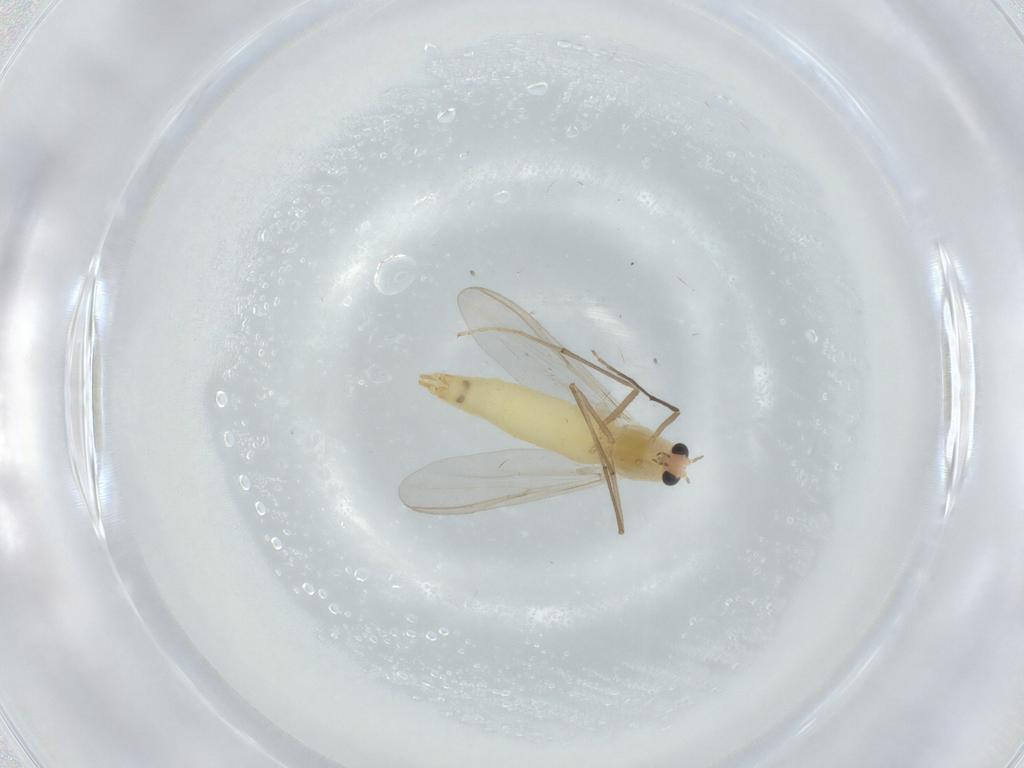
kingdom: Animalia
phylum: Arthropoda
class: Insecta
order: Diptera
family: Chironomidae
